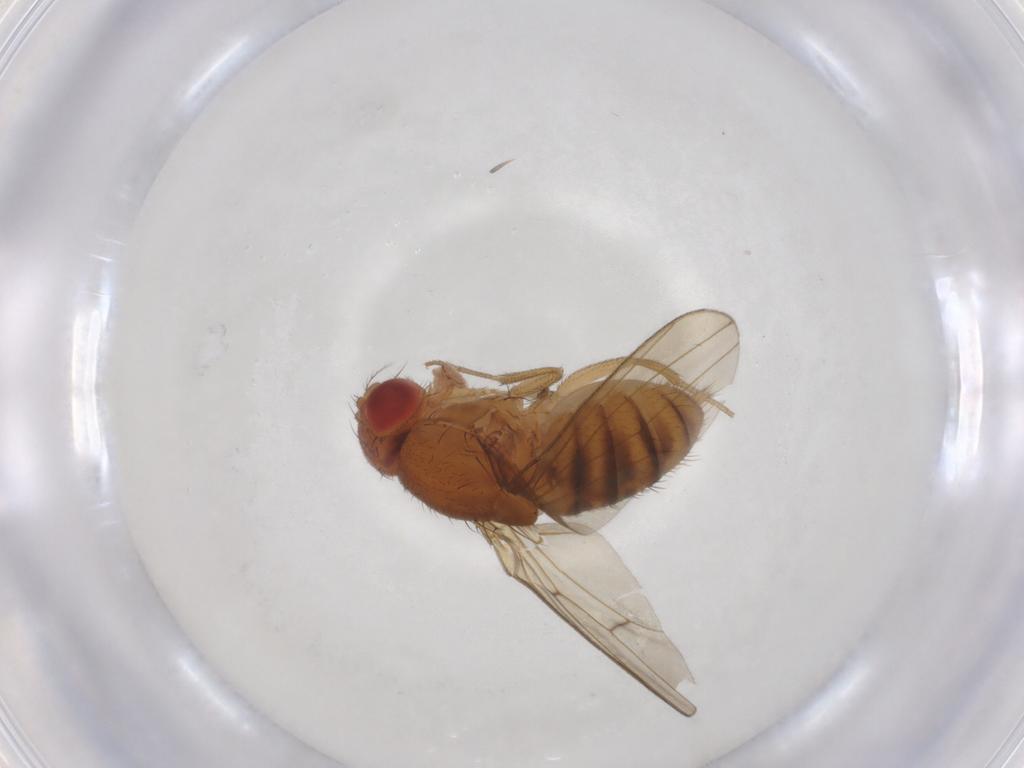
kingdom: Animalia
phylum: Arthropoda
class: Insecta
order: Diptera
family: Drosophilidae
